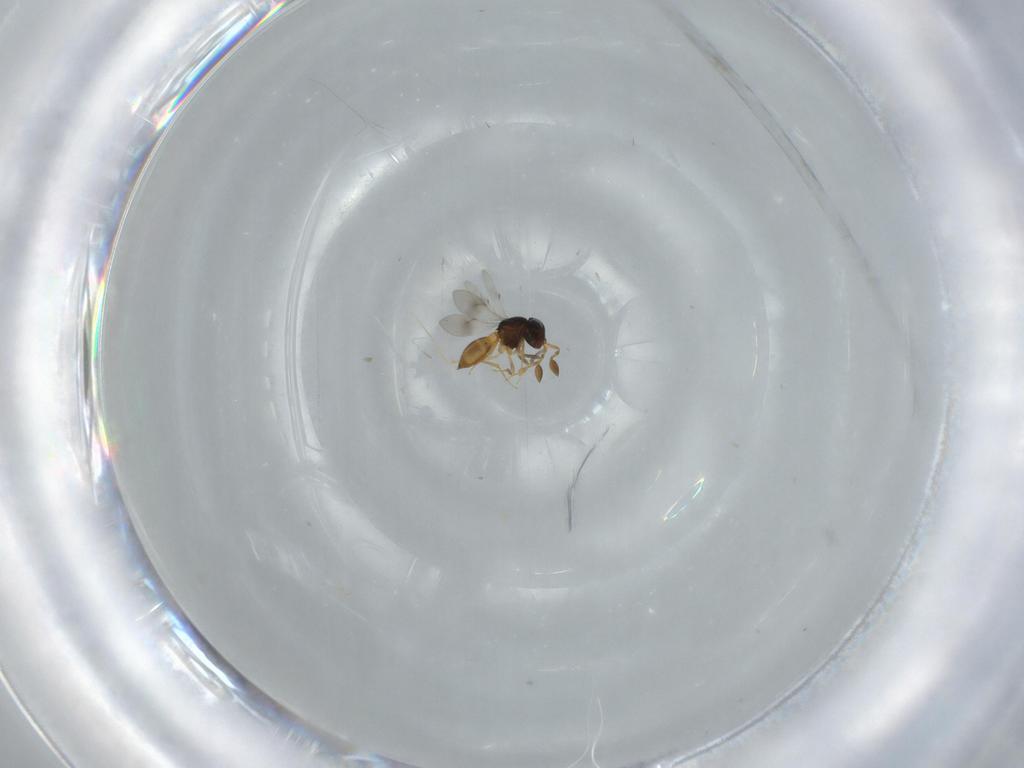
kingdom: Animalia
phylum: Arthropoda
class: Insecta
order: Hymenoptera
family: Scelionidae
